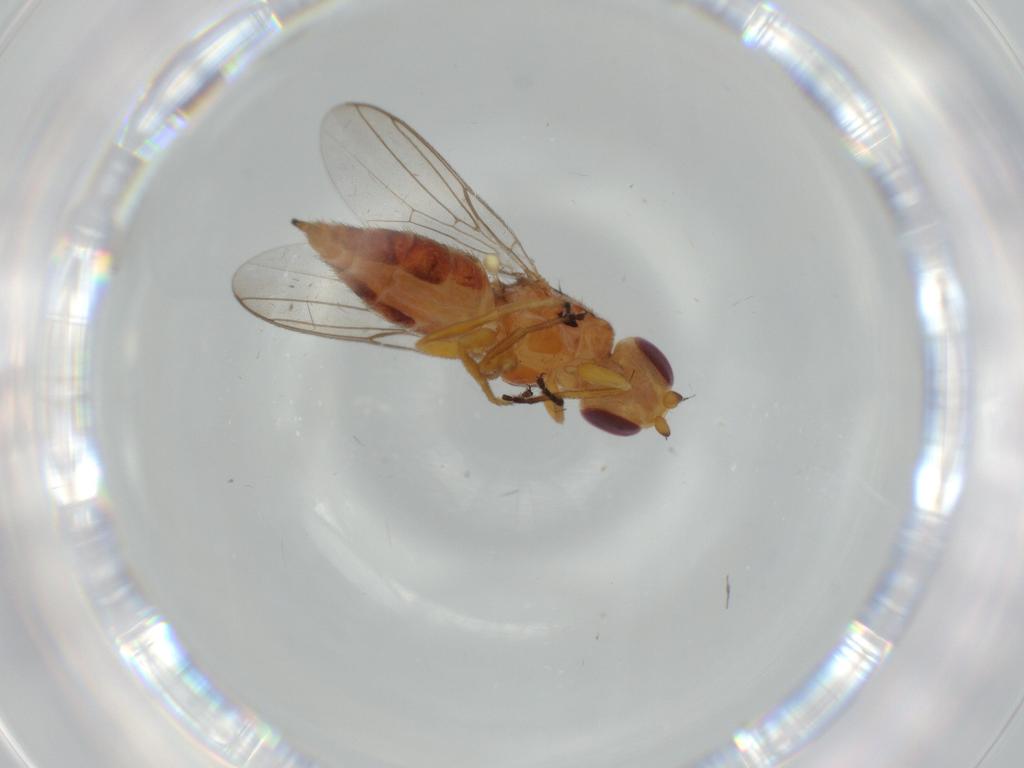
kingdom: Animalia
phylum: Arthropoda
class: Insecta
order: Diptera
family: Chloropidae
